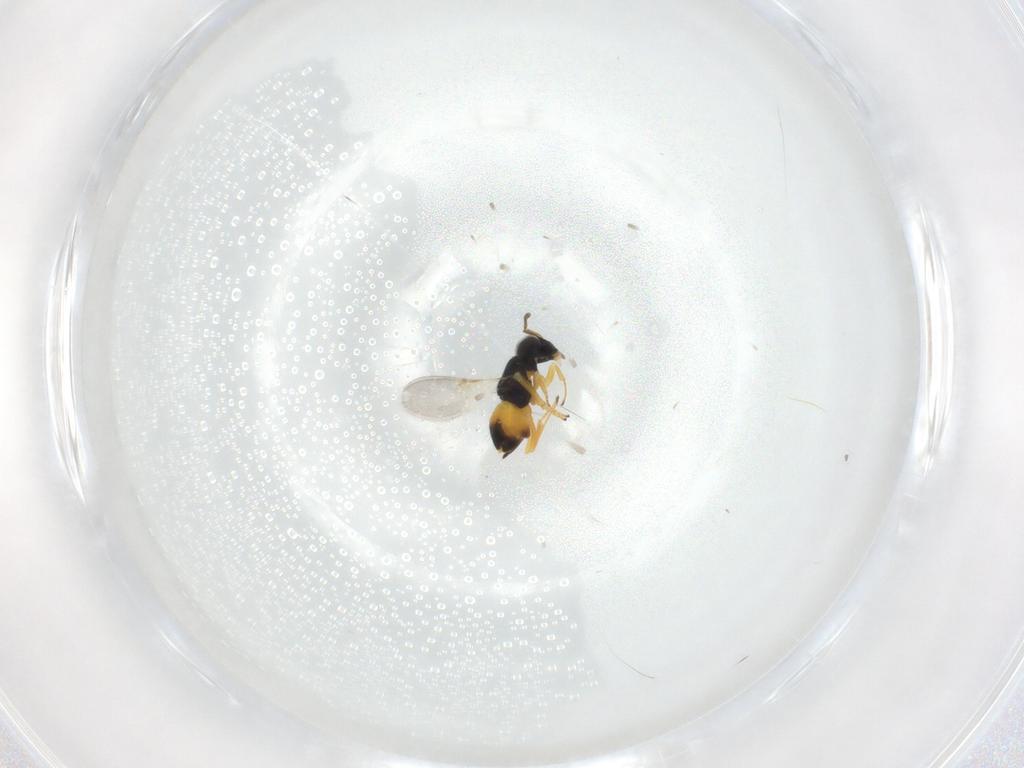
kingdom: Animalia
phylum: Arthropoda
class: Insecta
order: Hymenoptera
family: Encyrtidae
